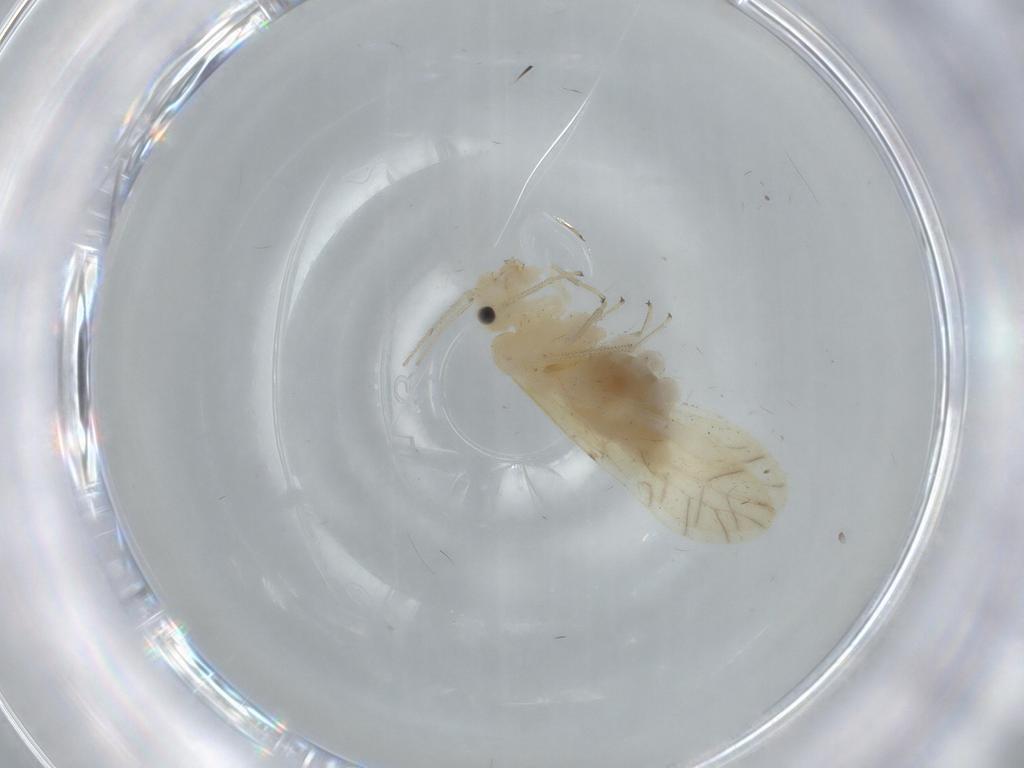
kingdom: Animalia
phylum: Arthropoda
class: Insecta
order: Psocodea
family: Caeciliusidae
